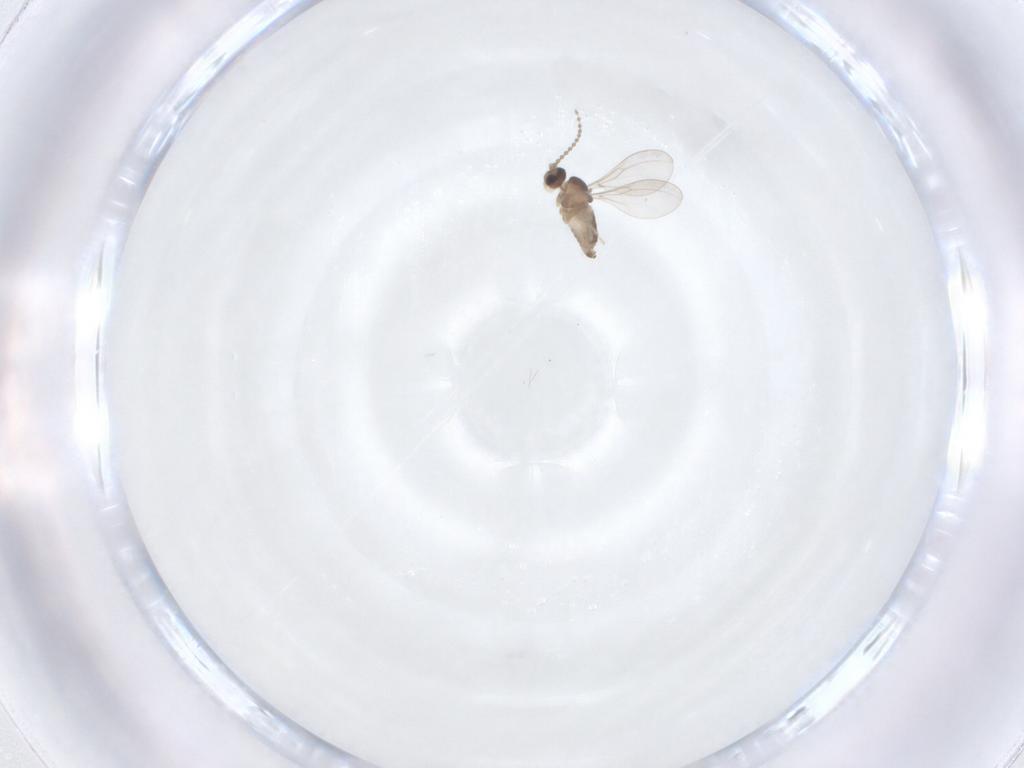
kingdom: Animalia
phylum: Arthropoda
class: Insecta
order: Diptera
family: Cecidomyiidae
